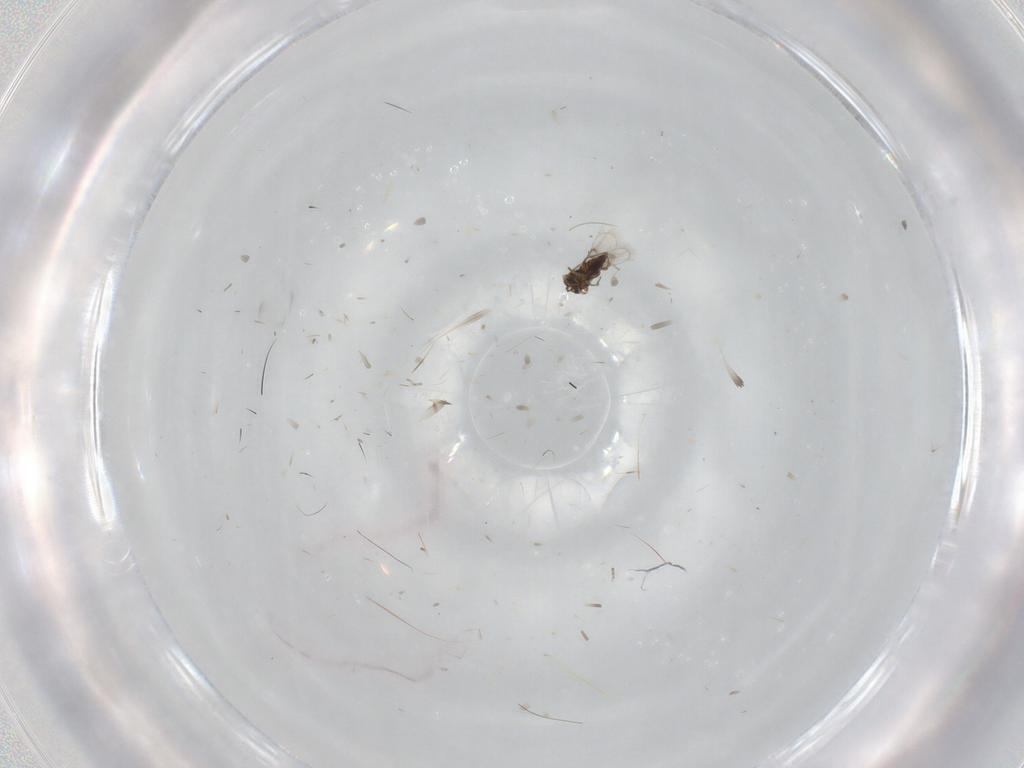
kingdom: Animalia
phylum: Arthropoda
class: Insecta
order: Hymenoptera
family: Trichogrammatidae
